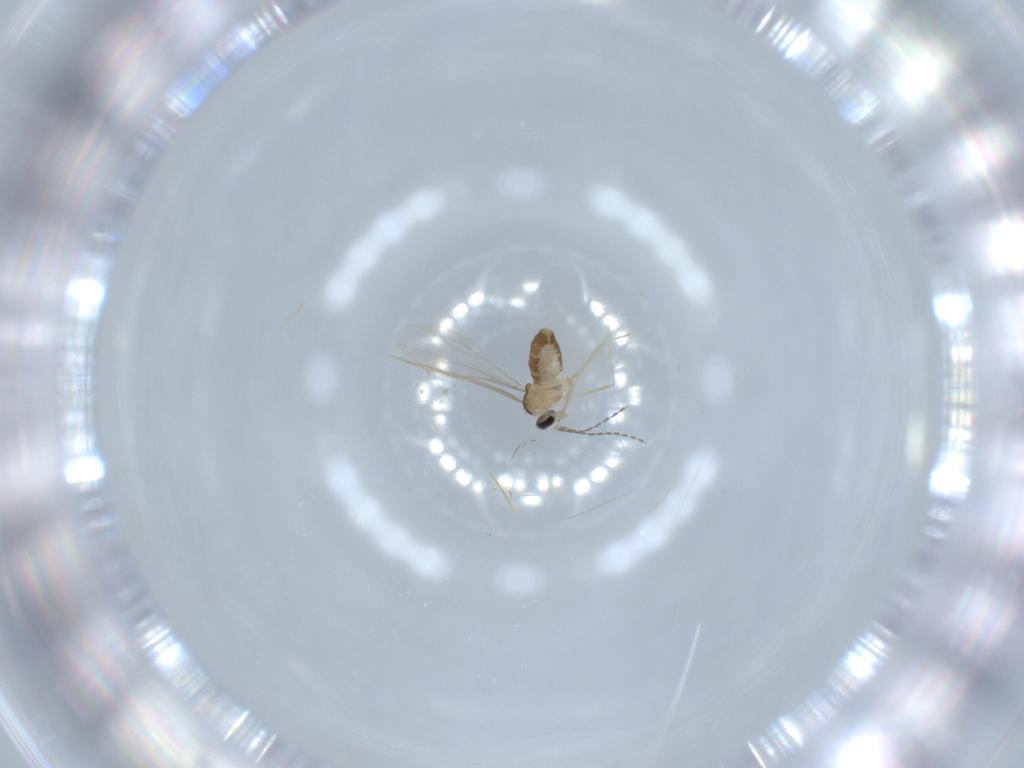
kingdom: Animalia
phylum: Arthropoda
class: Insecta
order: Diptera
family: Cecidomyiidae
